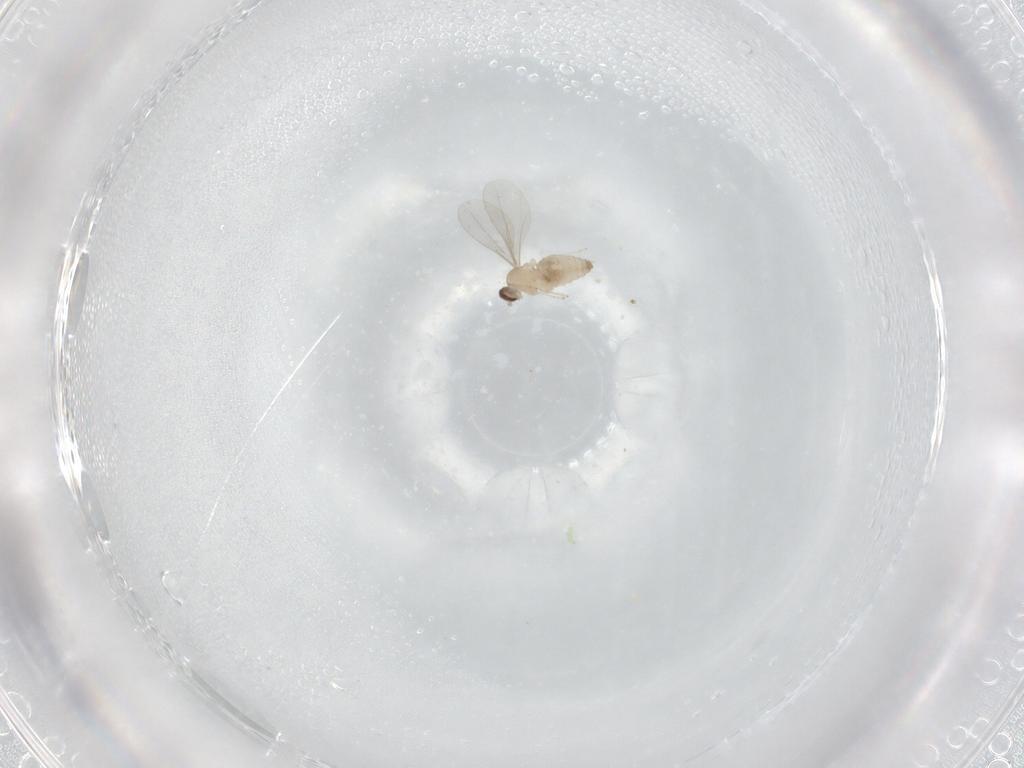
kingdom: Animalia
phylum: Arthropoda
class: Insecta
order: Diptera
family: Cecidomyiidae
